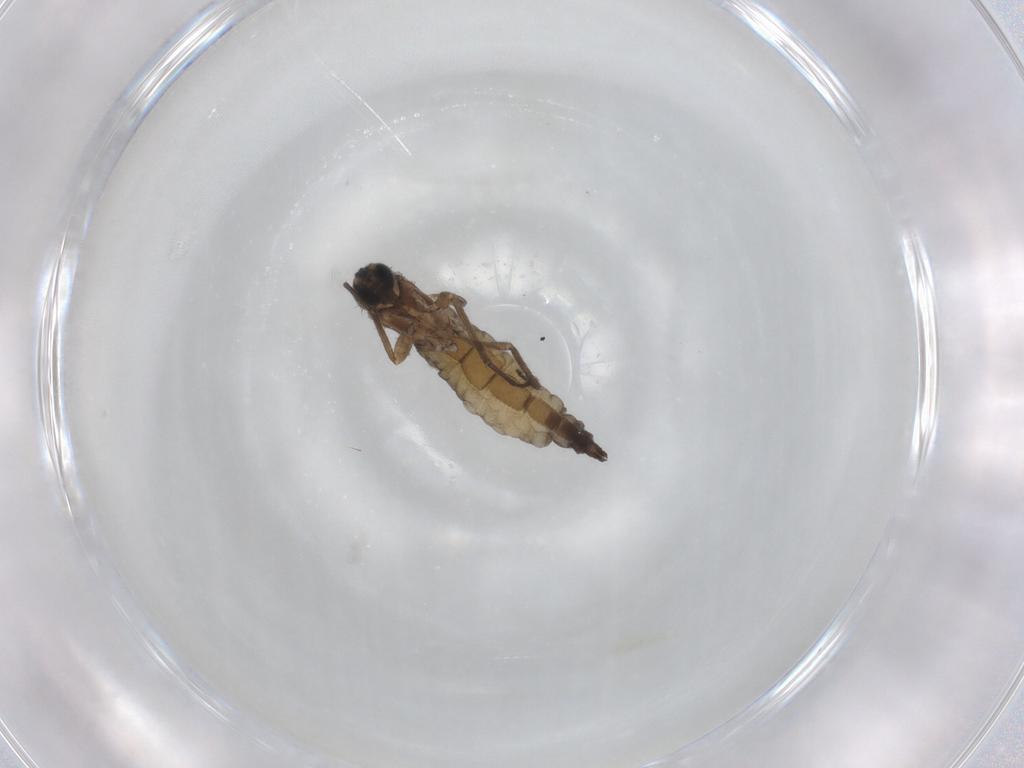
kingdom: Animalia
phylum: Arthropoda
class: Insecta
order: Diptera
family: Sciaridae
